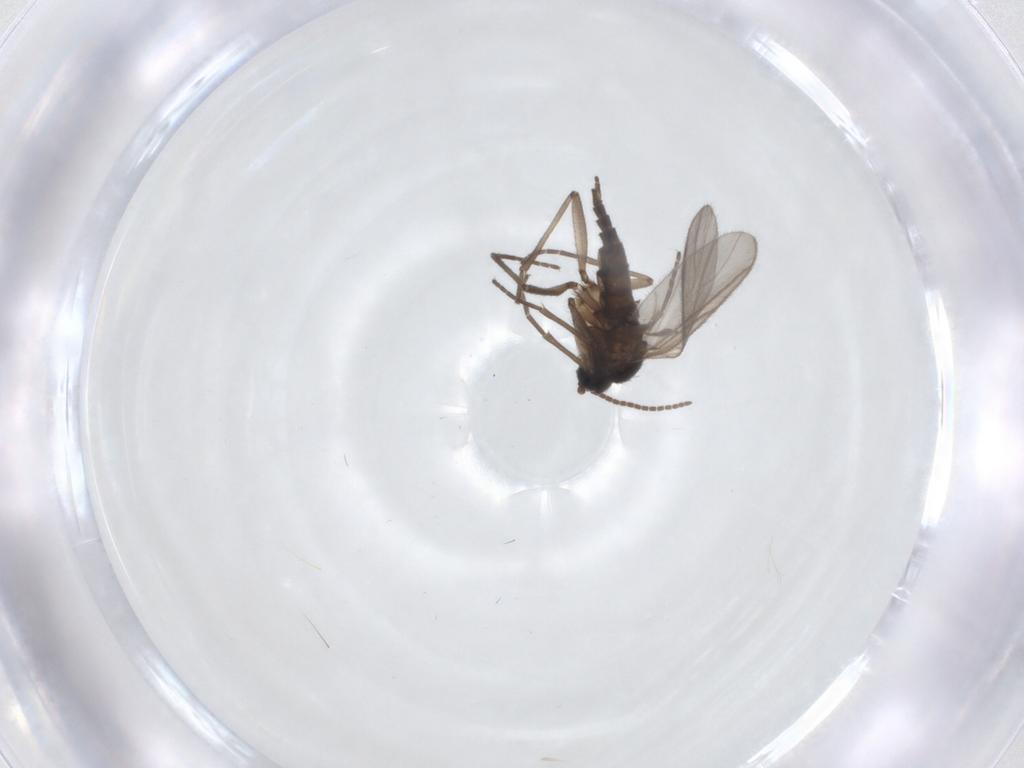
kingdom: Animalia
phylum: Arthropoda
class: Insecta
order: Diptera
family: Sciaridae
